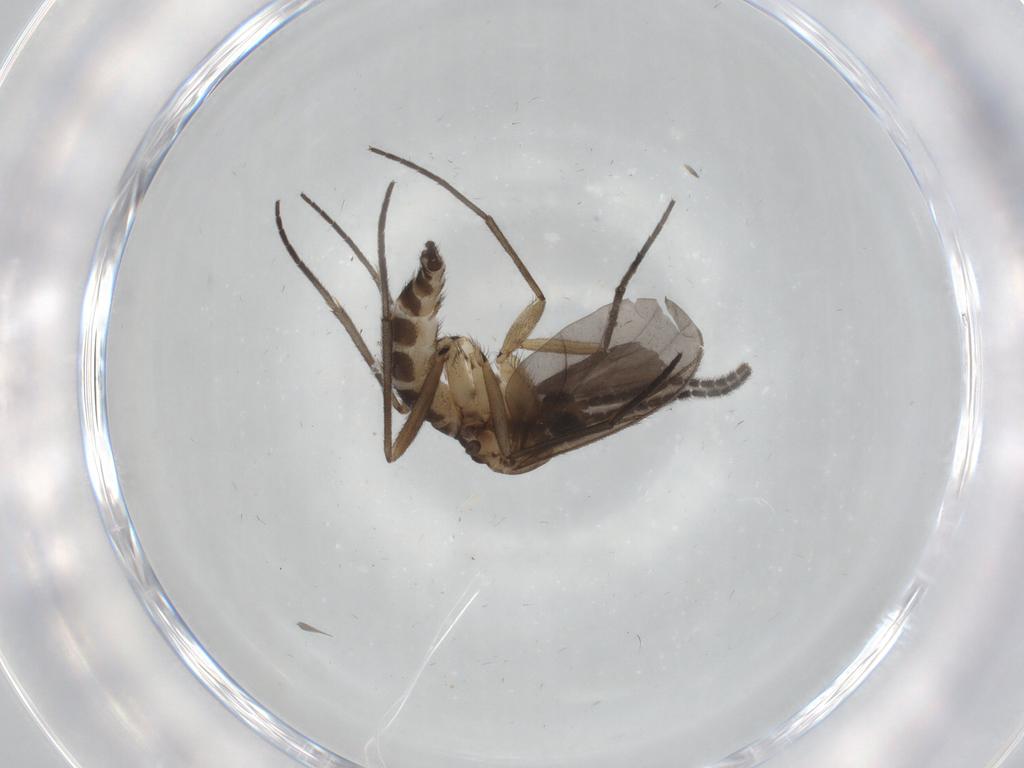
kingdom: Animalia
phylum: Arthropoda
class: Insecta
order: Diptera
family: Sciaridae
